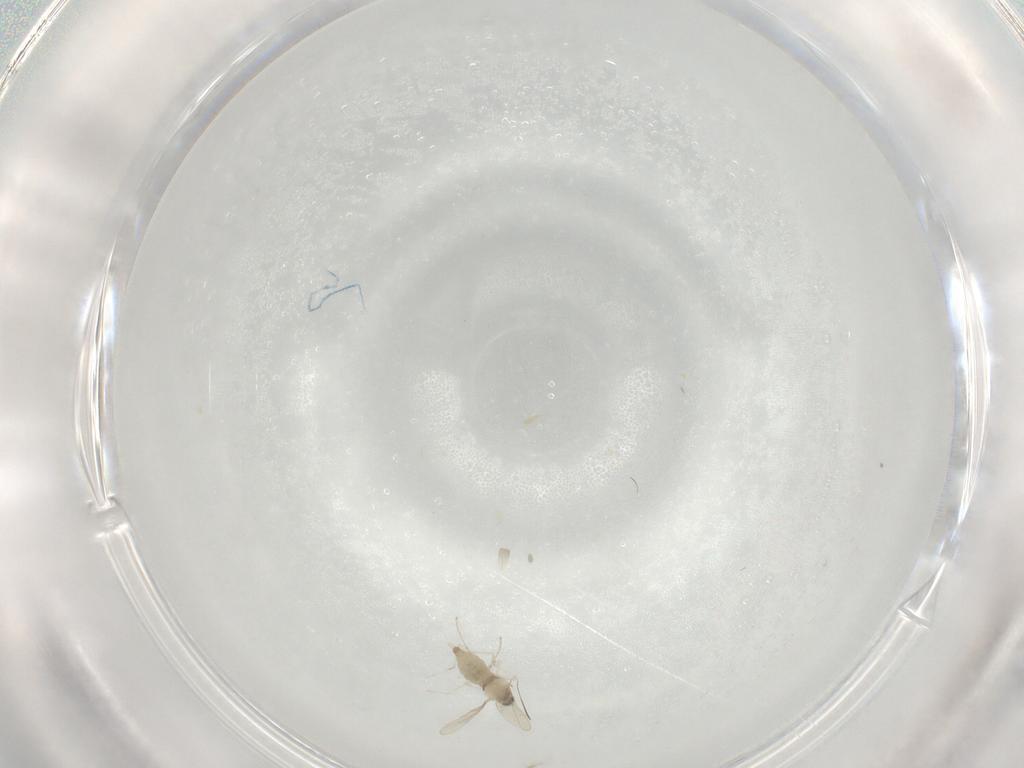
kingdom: Animalia
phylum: Arthropoda
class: Insecta
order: Diptera
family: Cecidomyiidae
